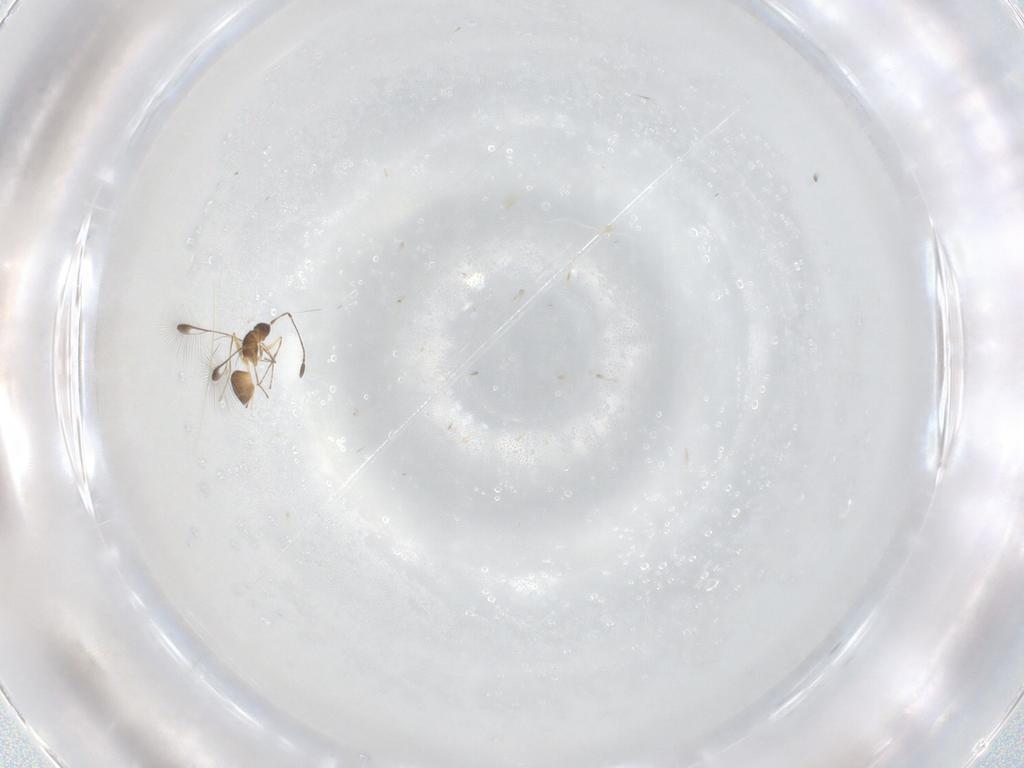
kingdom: Animalia
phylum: Arthropoda
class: Insecta
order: Hymenoptera
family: Mymaridae
